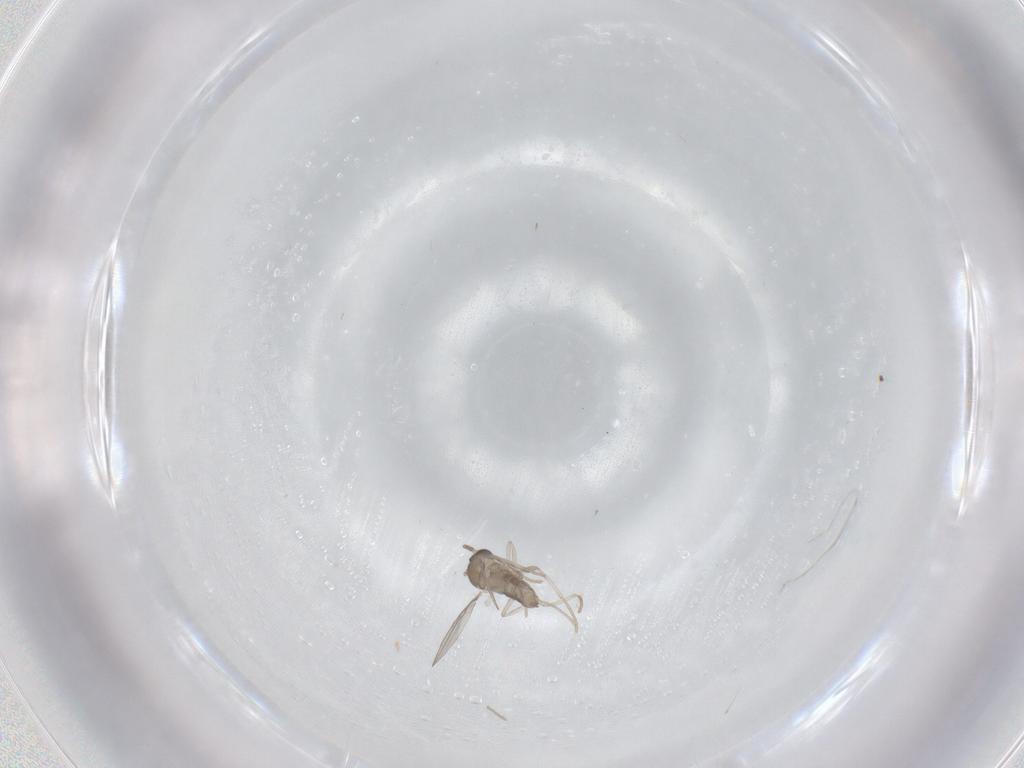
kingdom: Animalia
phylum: Arthropoda
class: Insecta
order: Diptera
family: Cecidomyiidae
